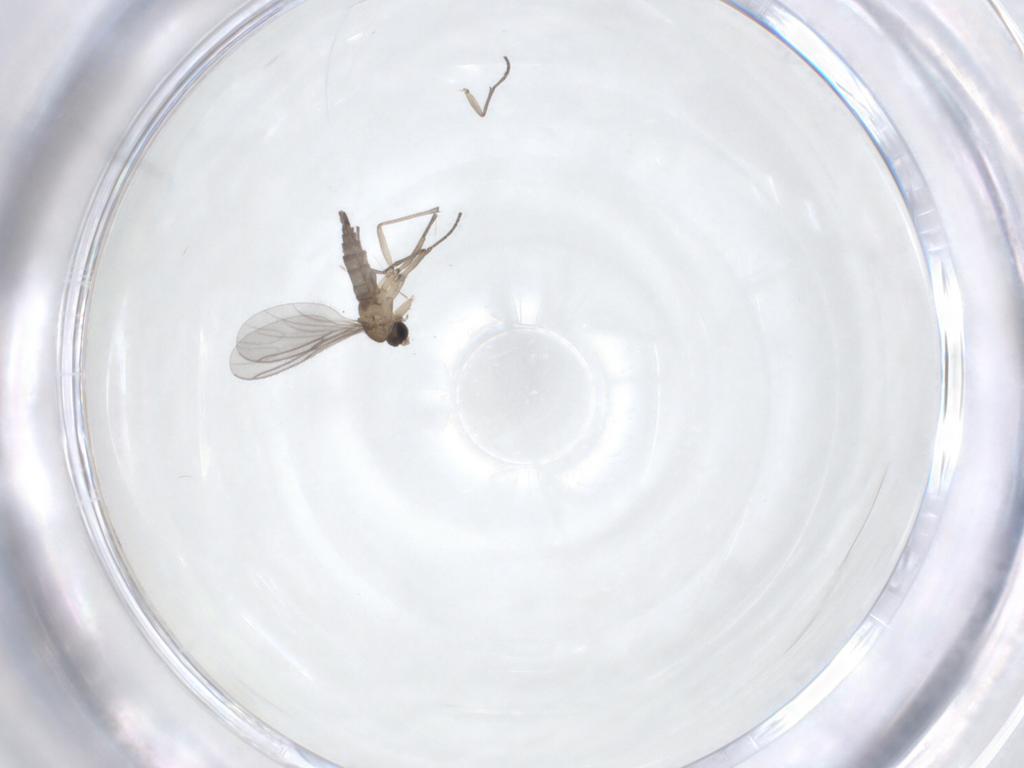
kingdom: Animalia
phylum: Arthropoda
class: Insecta
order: Diptera
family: Sciaridae
